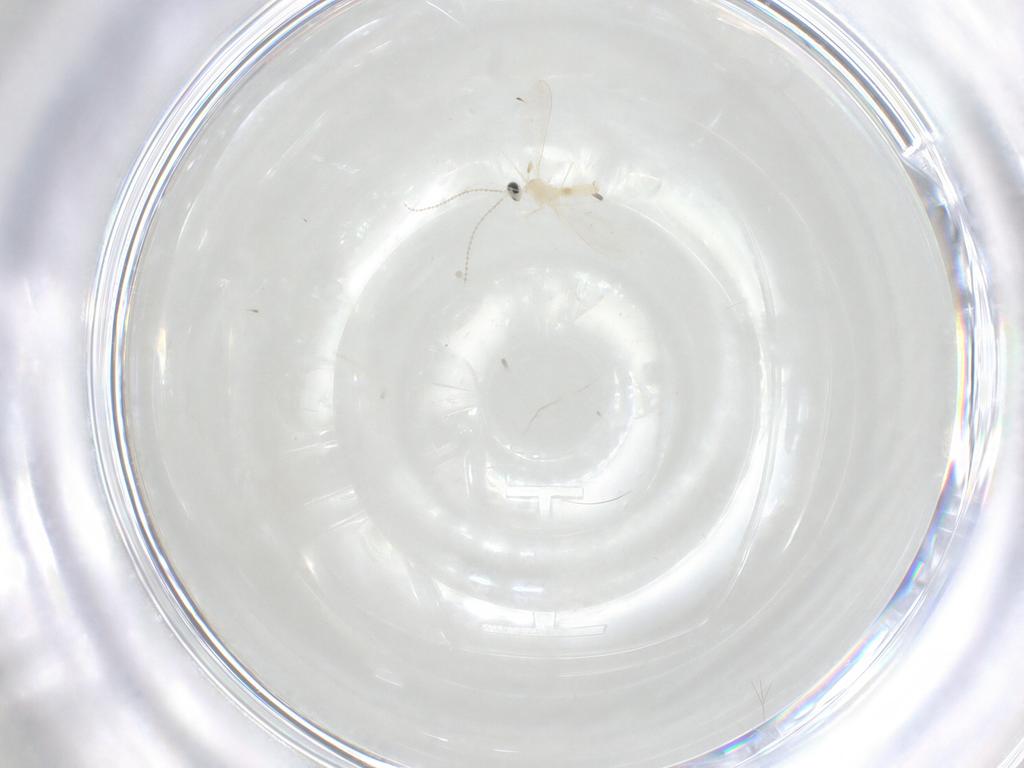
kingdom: Animalia
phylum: Arthropoda
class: Insecta
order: Diptera
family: Cecidomyiidae
